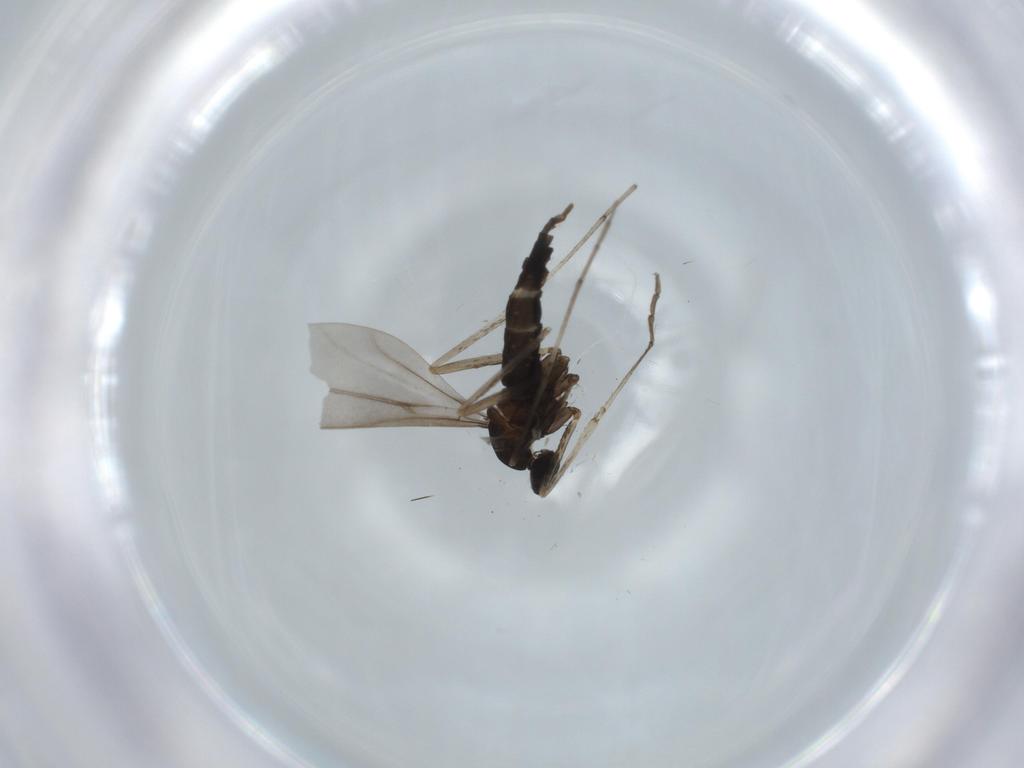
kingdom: Animalia
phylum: Arthropoda
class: Insecta
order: Diptera
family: Cecidomyiidae
